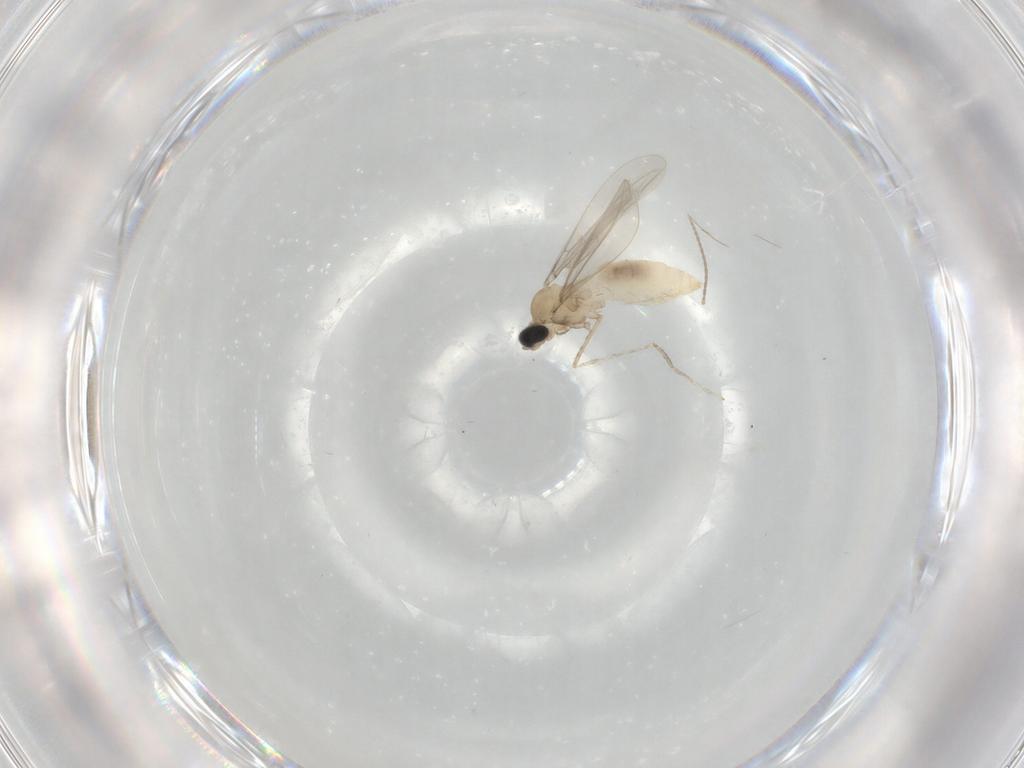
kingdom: Animalia
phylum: Arthropoda
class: Insecta
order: Diptera
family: Cecidomyiidae
